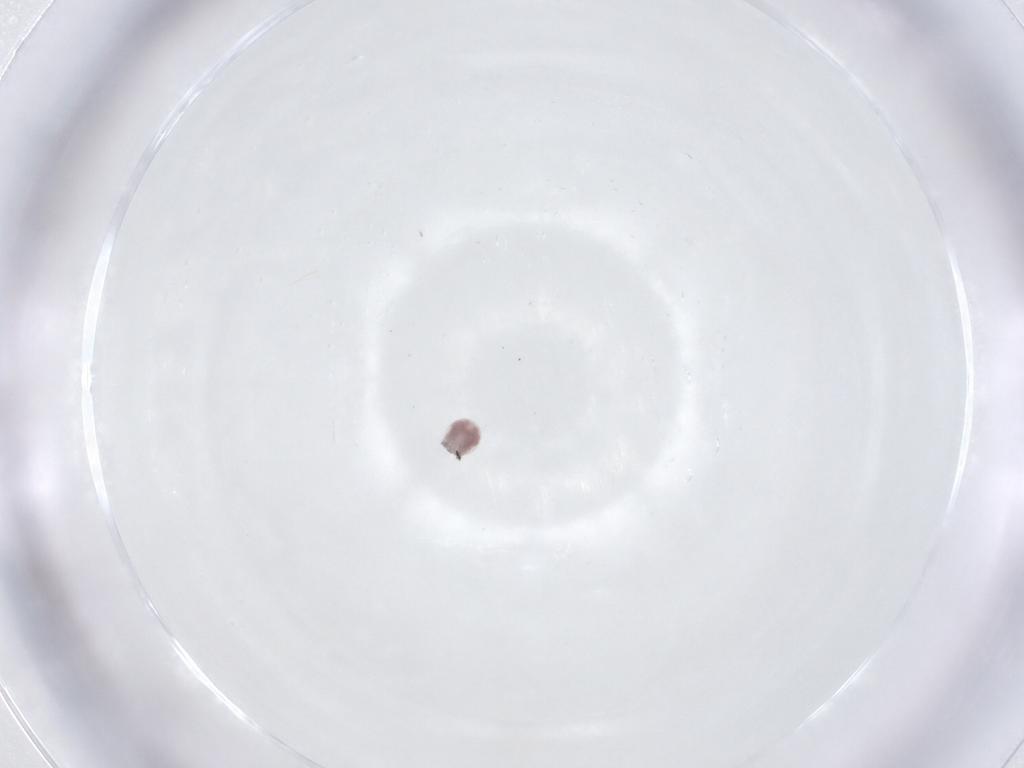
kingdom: Animalia
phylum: Arthropoda
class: Arachnida
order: Trombidiformes
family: Pionidae
